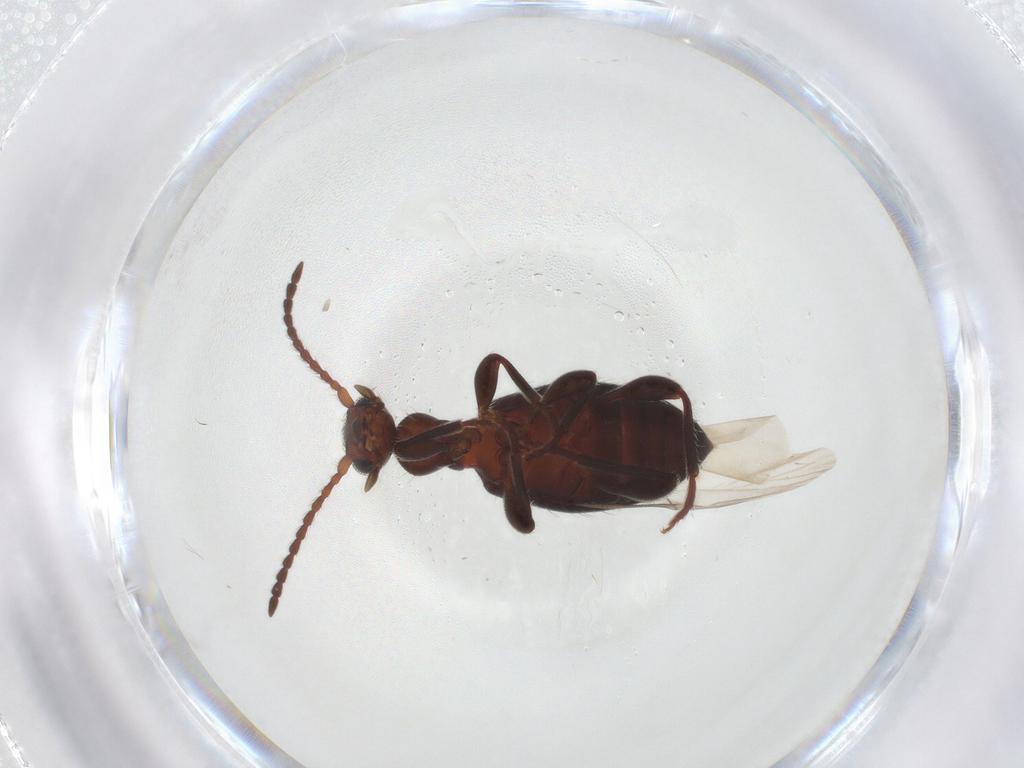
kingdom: Animalia
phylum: Arthropoda
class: Insecta
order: Coleoptera
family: Anthicidae
